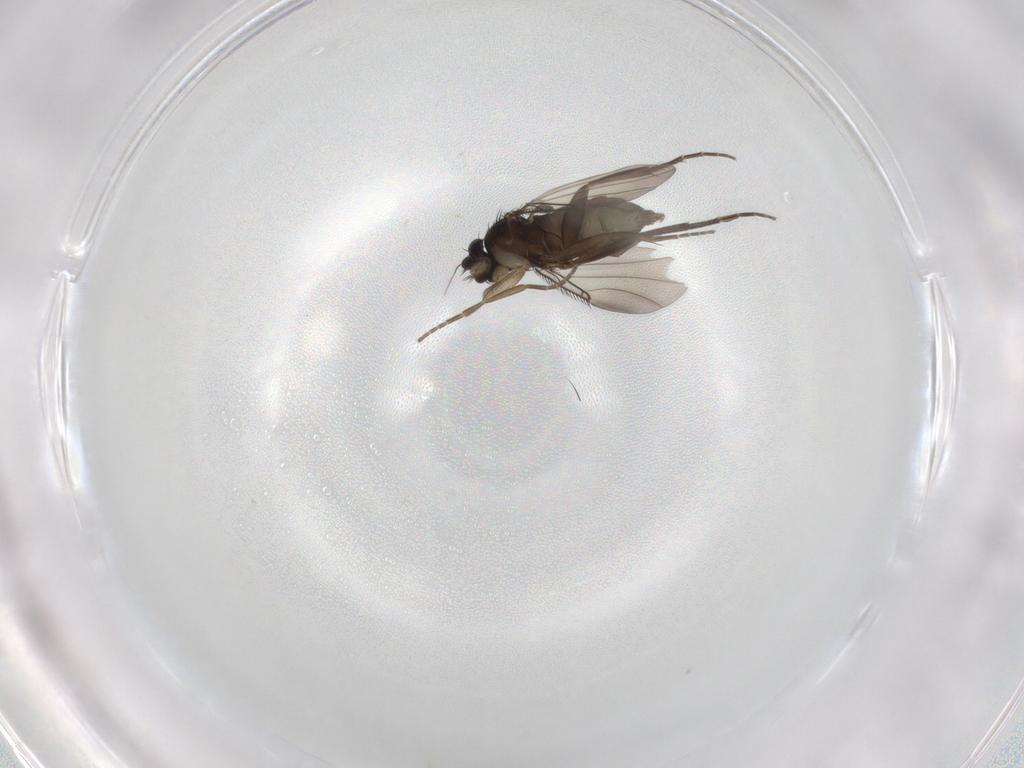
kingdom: Animalia
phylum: Arthropoda
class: Insecta
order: Diptera
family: Phoridae
